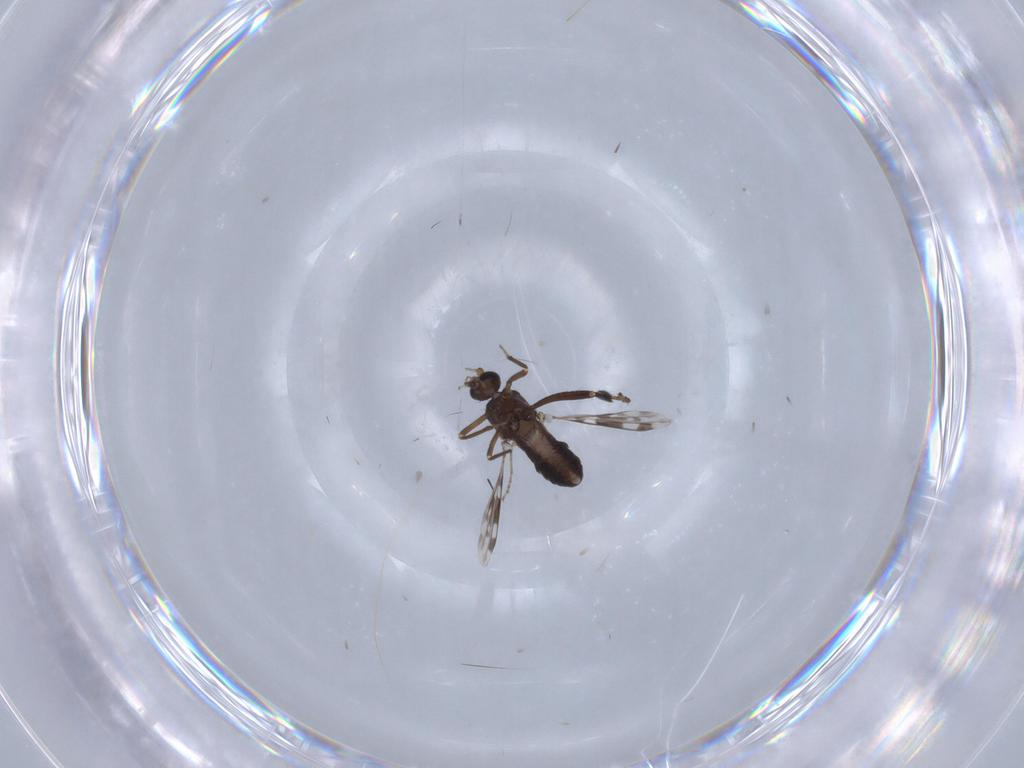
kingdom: Animalia
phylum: Arthropoda
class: Insecta
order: Diptera
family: Ceratopogonidae
